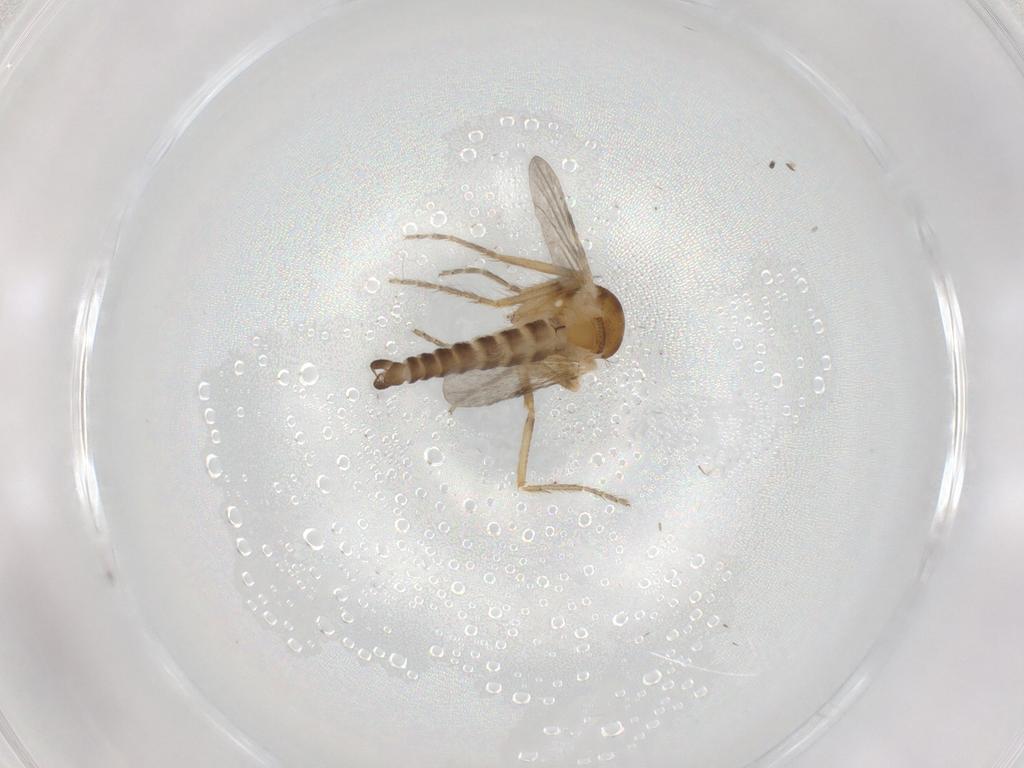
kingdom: Animalia
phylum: Arthropoda
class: Insecta
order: Diptera
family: Ceratopogonidae
